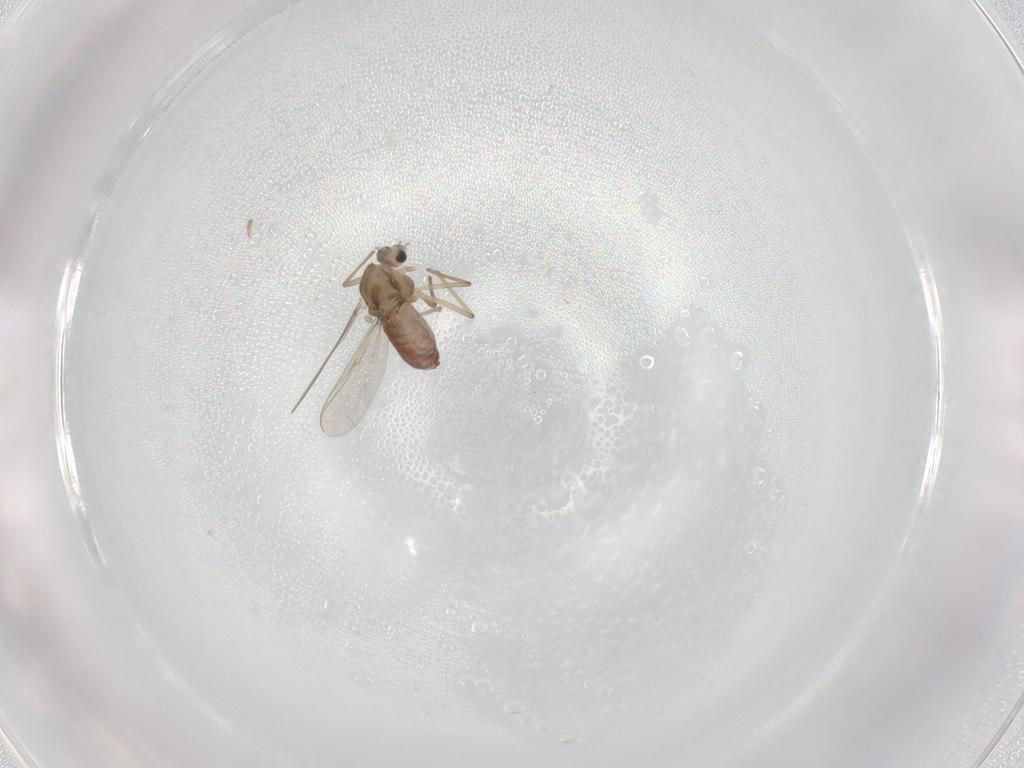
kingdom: Animalia
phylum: Arthropoda
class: Insecta
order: Diptera
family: Chironomidae
